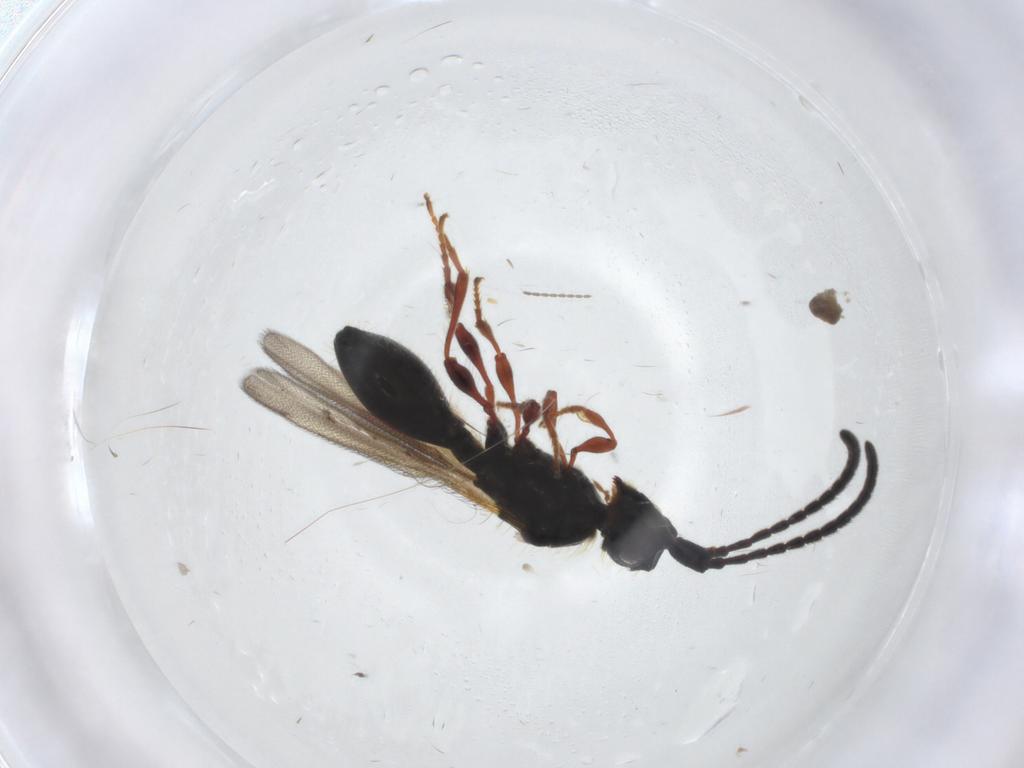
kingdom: Animalia
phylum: Arthropoda
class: Insecta
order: Hymenoptera
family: Diapriidae
